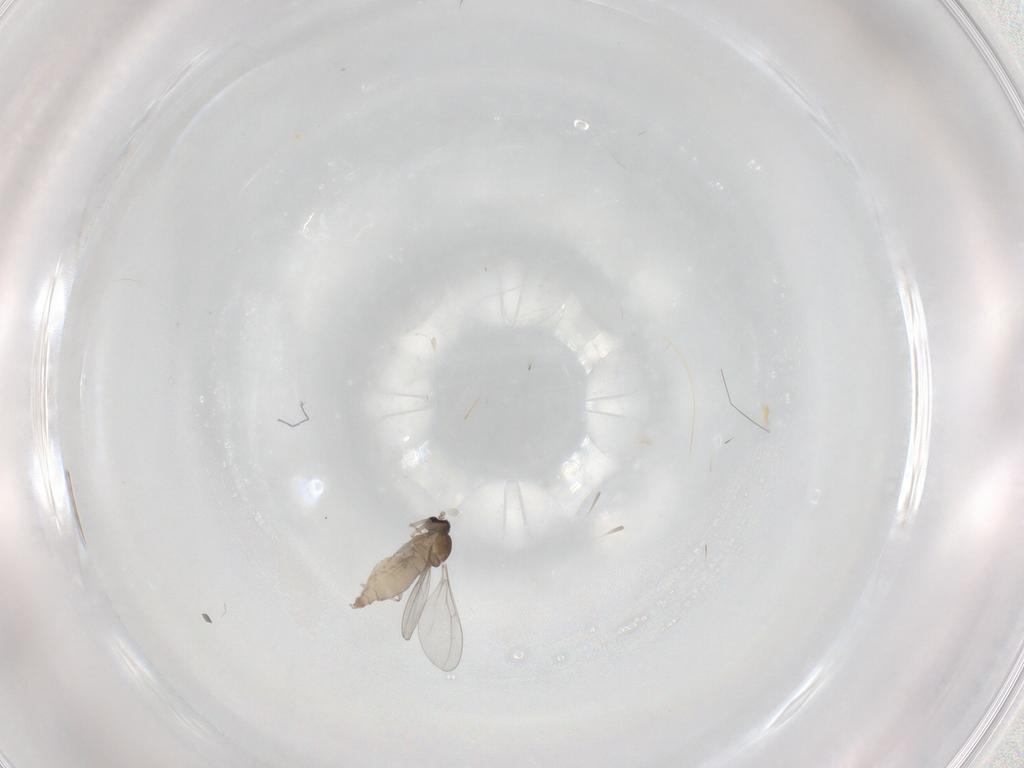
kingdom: Animalia
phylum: Arthropoda
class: Insecta
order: Diptera
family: Cecidomyiidae
